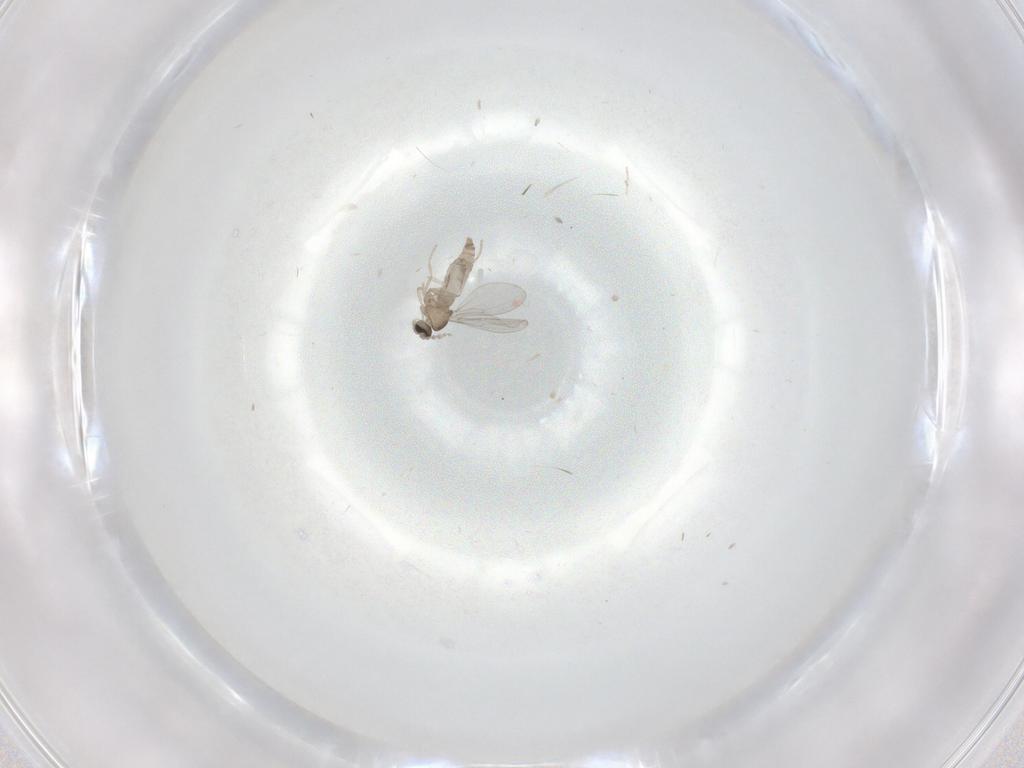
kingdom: Animalia
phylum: Arthropoda
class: Insecta
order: Diptera
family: Cecidomyiidae
